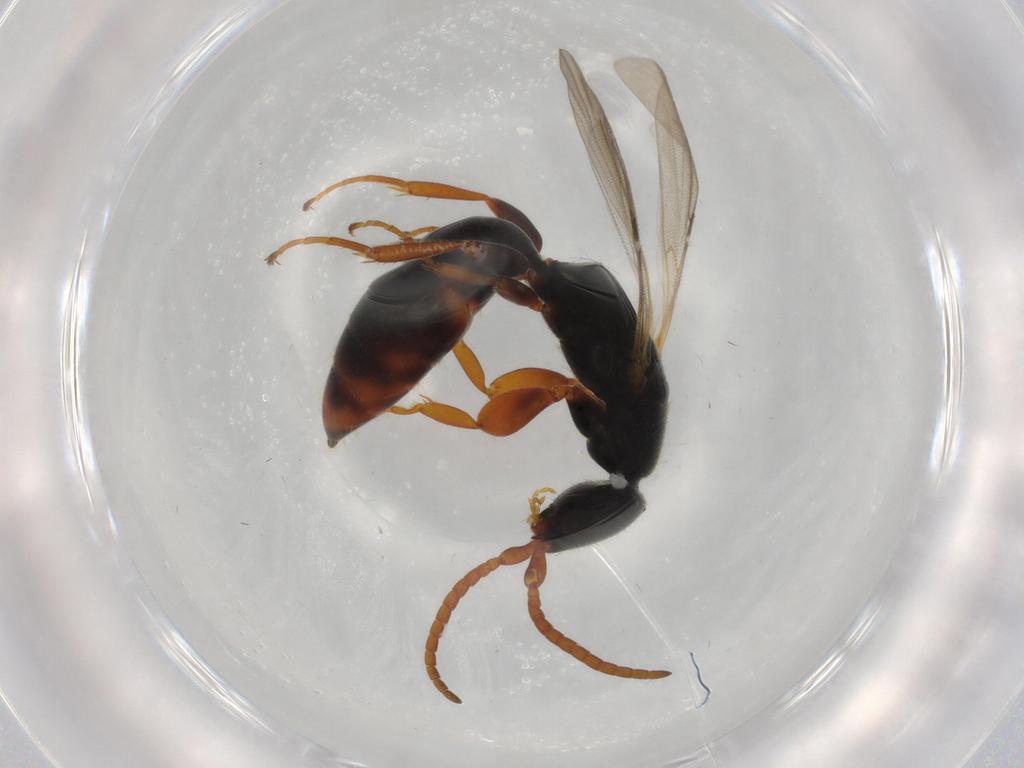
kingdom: Animalia
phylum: Arthropoda
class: Insecta
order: Hymenoptera
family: Bethylidae
